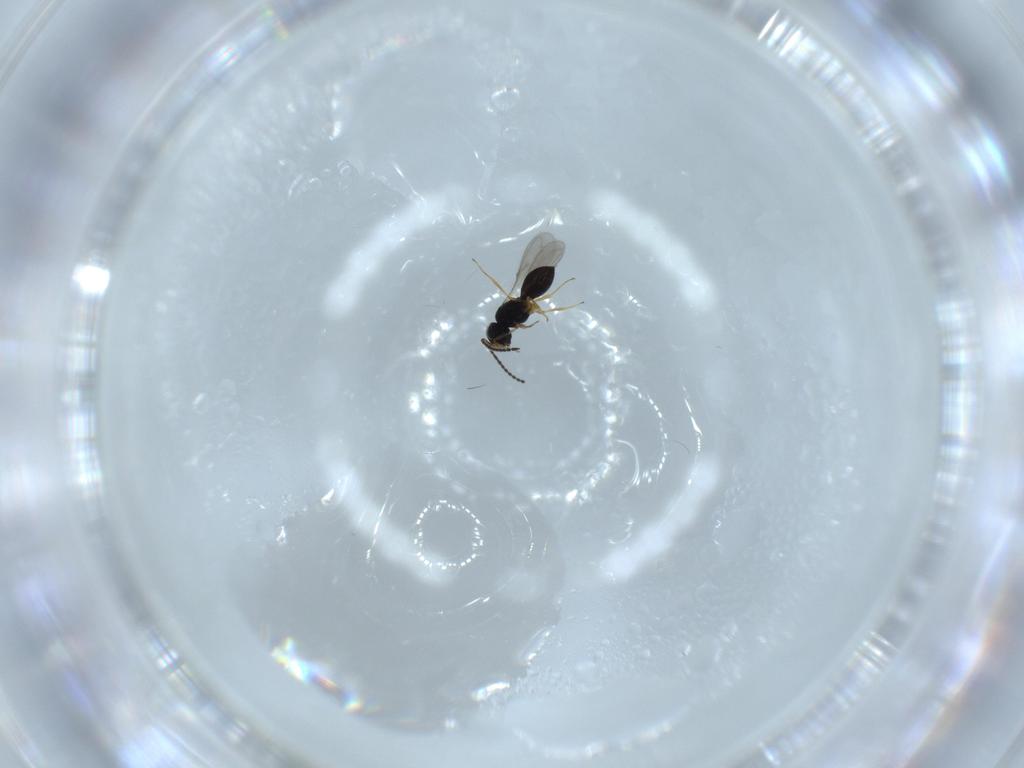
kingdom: Animalia
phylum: Arthropoda
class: Insecta
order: Hymenoptera
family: Scelionidae
